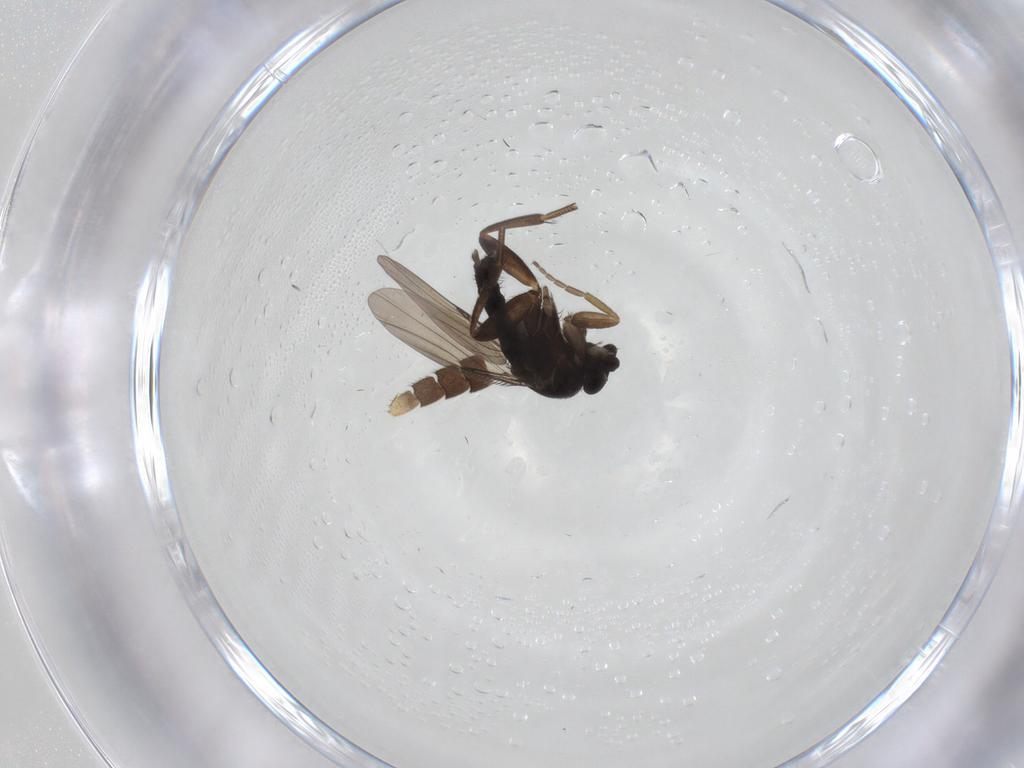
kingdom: Animalia
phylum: Arthropoda
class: Insecta
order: Diptera
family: Phoridae
